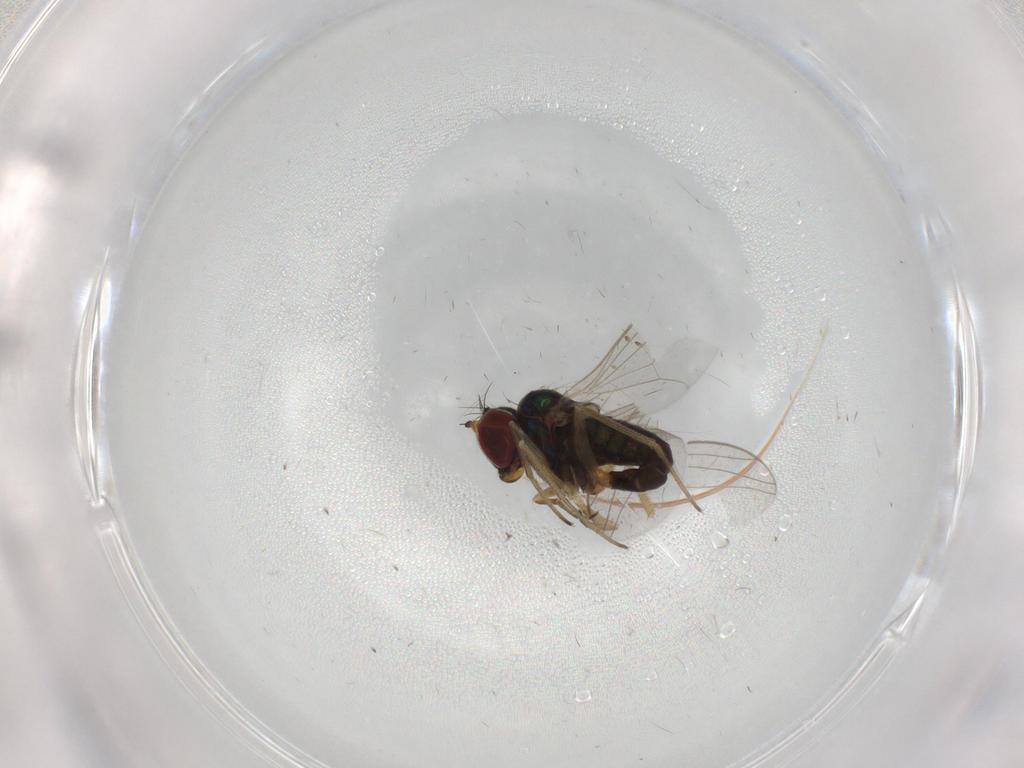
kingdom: Animalia
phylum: Arthropoda
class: Insecta
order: Diptera
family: Dolichopodidae
